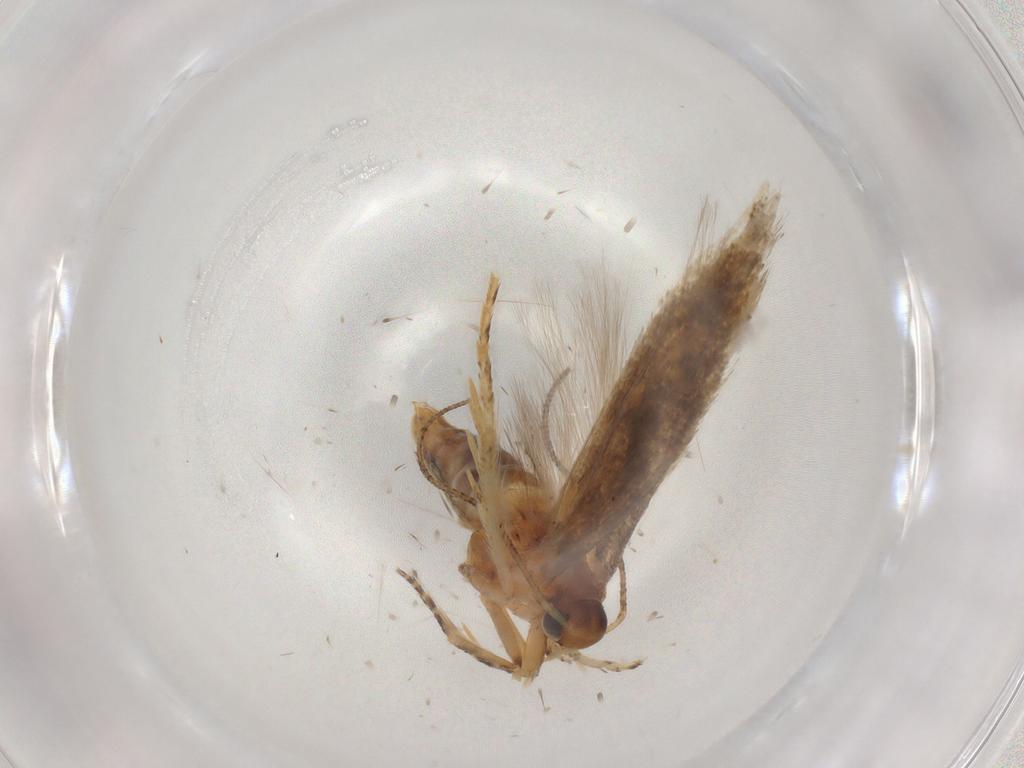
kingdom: Animalia
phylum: Arthropoda
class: Insecta
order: Lepidoptera
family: Gelechiidae
